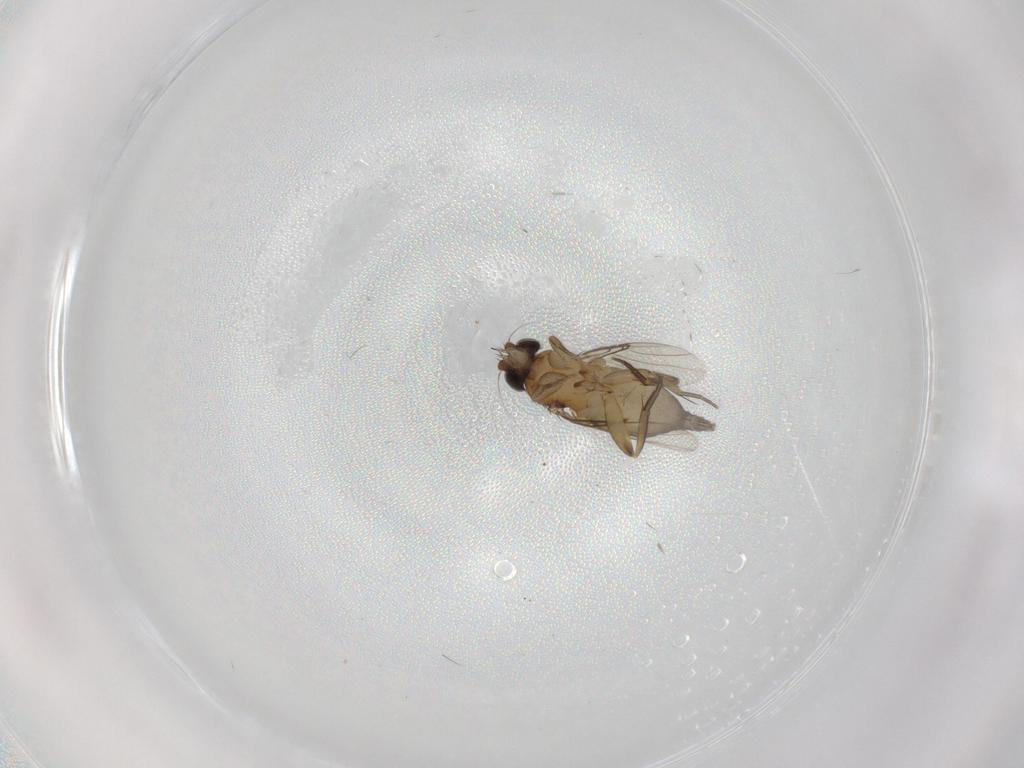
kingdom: Animalia
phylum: Arthropoda
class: Insecta
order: Diptera
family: Phoridae
